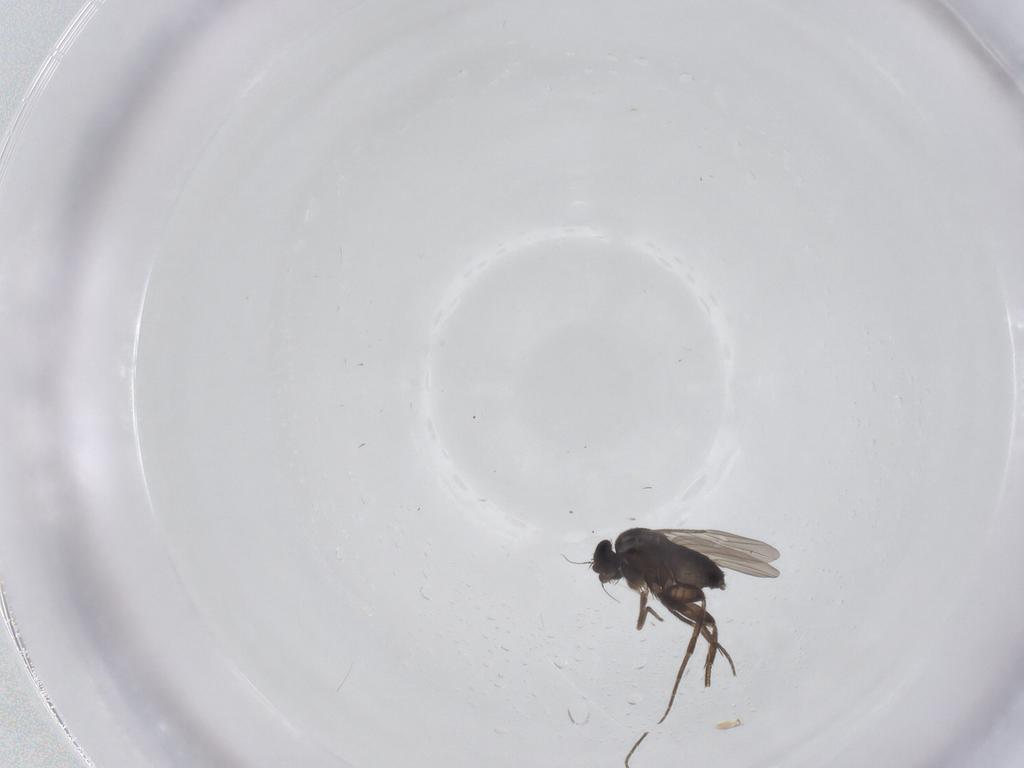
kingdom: Animalia
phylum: Arthropoda
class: Insecta
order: Diptera
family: Phoridae
